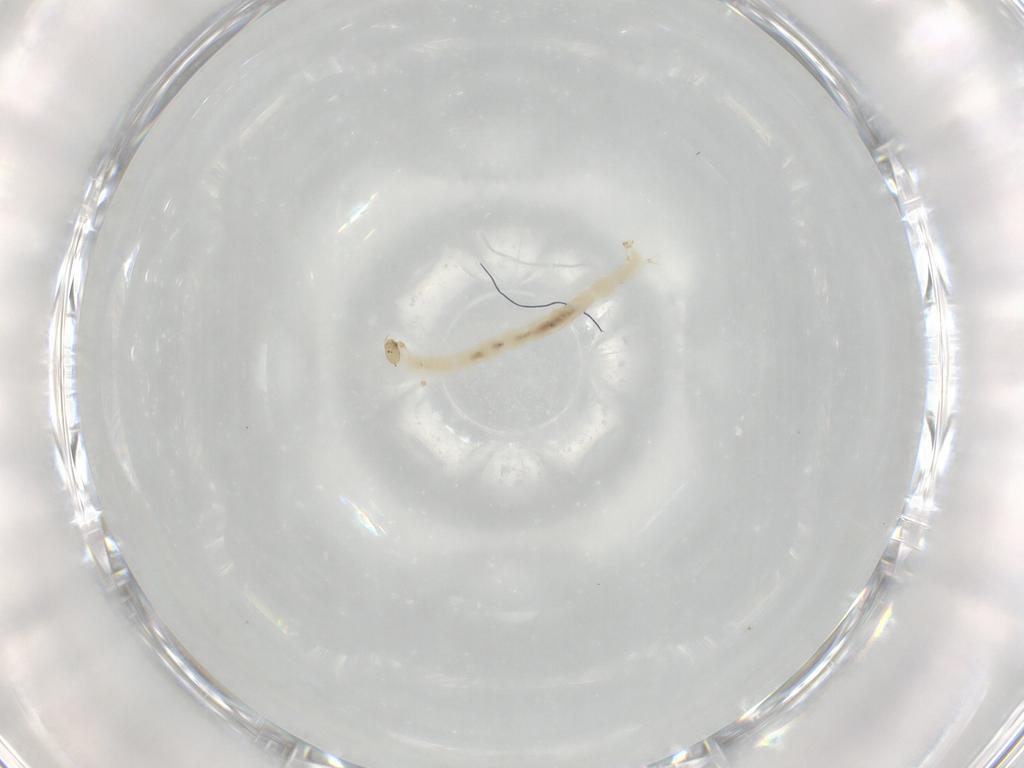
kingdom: Animalia
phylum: Arthropoda
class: Insecta
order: Diptera
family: Chironomidae
